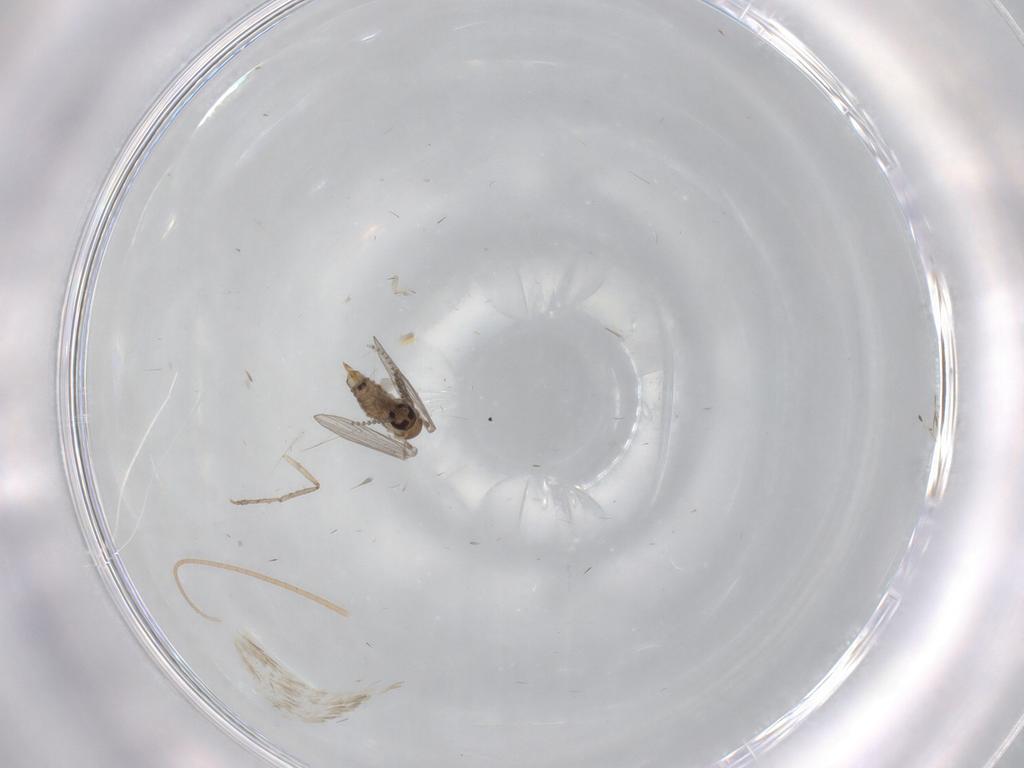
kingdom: Animalia
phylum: Arthropoda
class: Insecta
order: Diptera
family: Psychodidae
